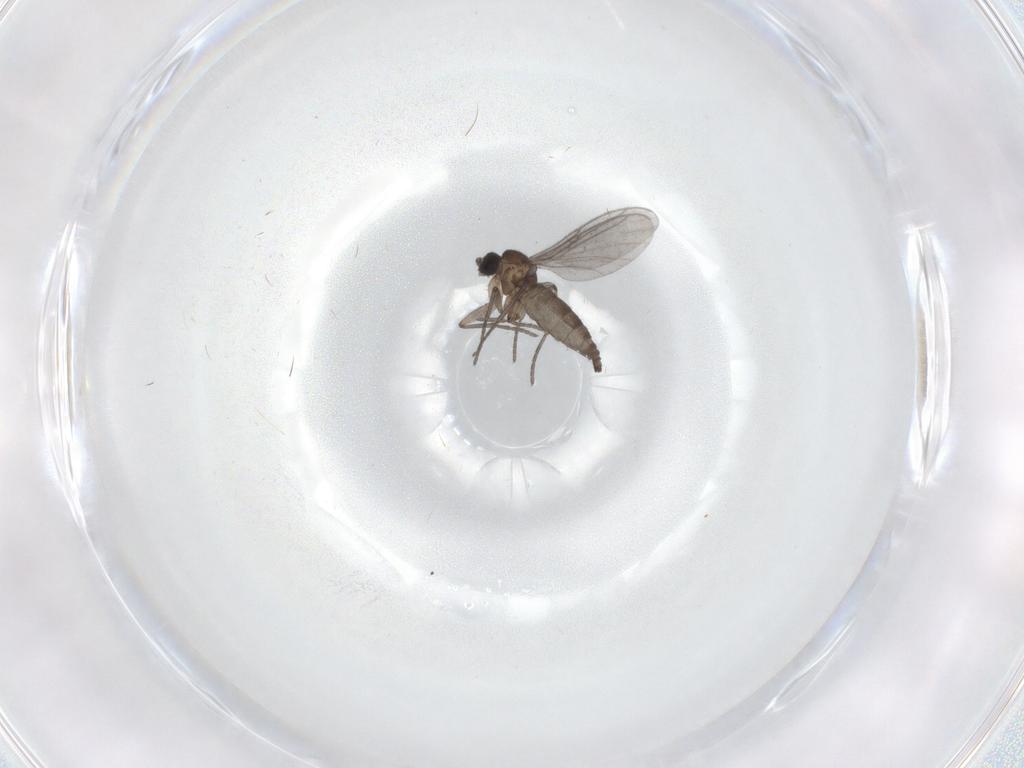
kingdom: Animalia
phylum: Arthropoda
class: Insecta
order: Diptera
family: Sciaridae
